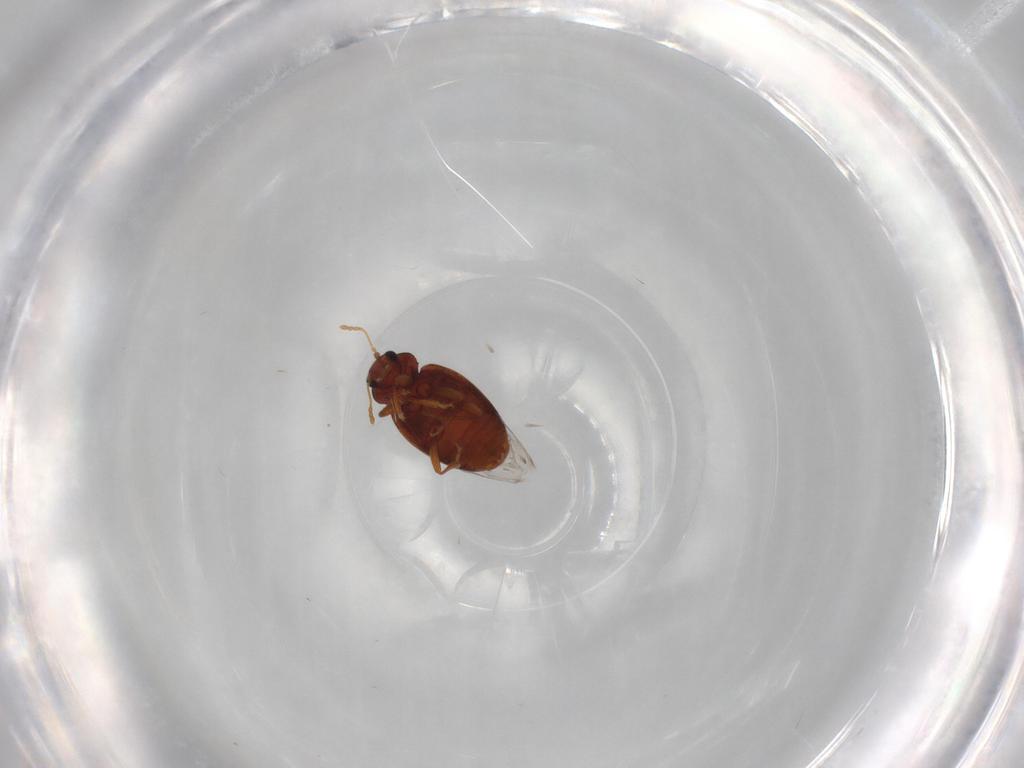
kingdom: Animalia
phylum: Arthropoda
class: Insecta
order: Coleoptera
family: Latridiidae
